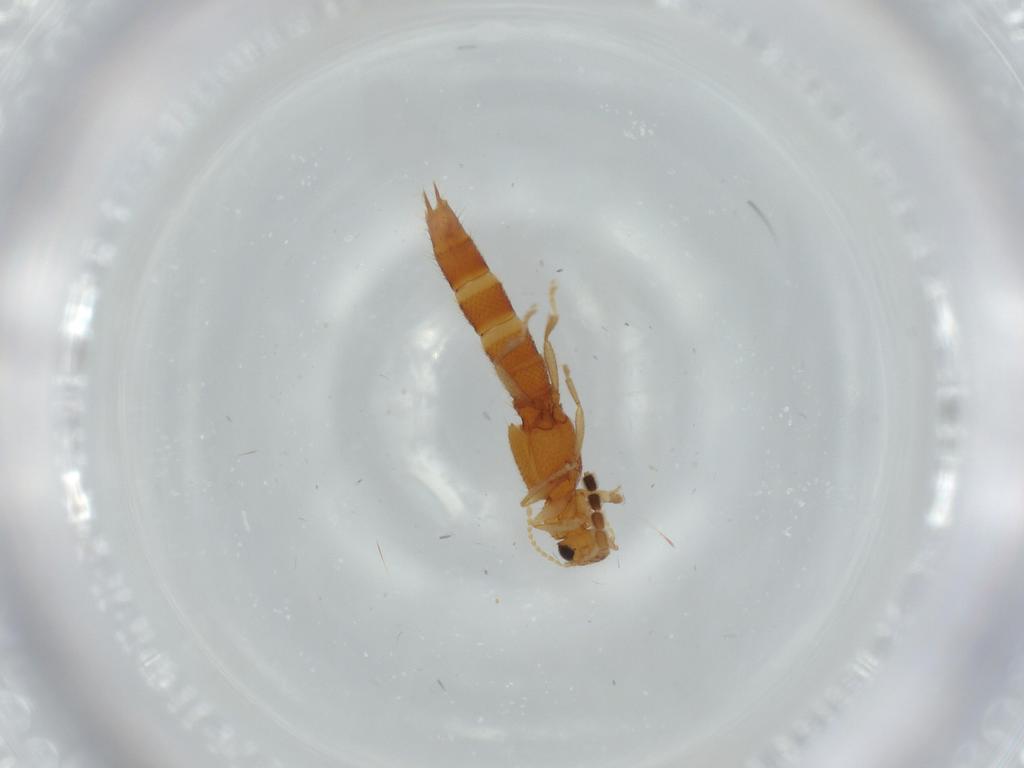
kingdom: Animalia
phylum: Arthropoda
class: Insecta
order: Coleoptera
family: Staphylinidae
